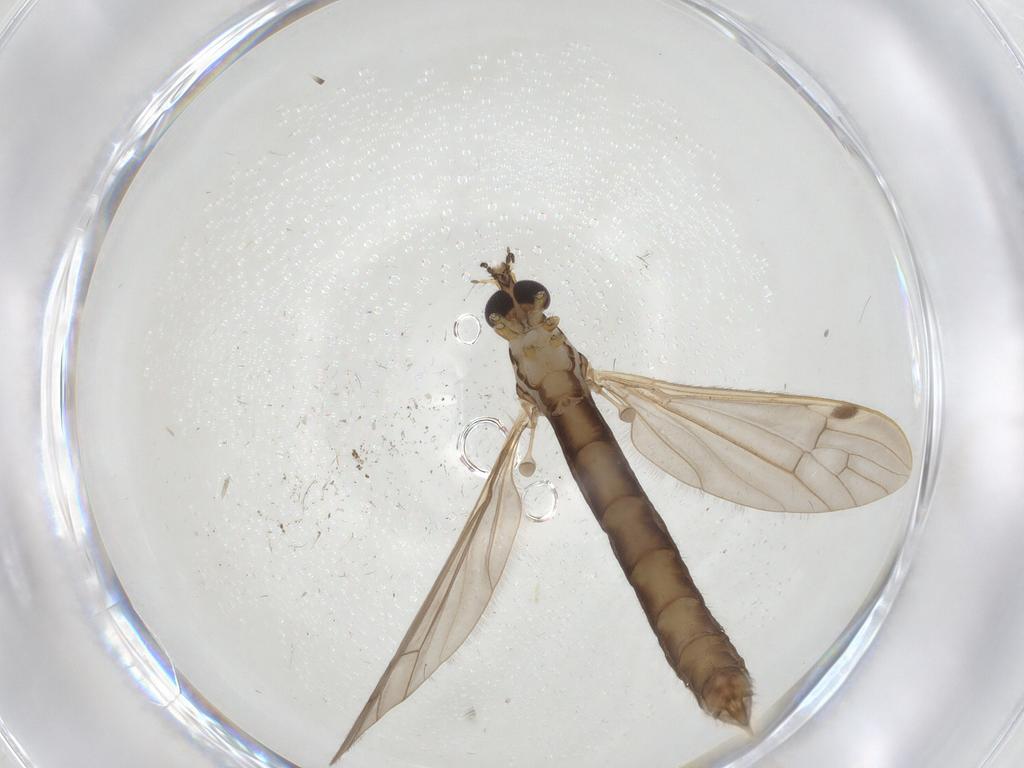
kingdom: Animalia
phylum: Arthropoda
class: Insecta
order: Diptera
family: Limoniidae
